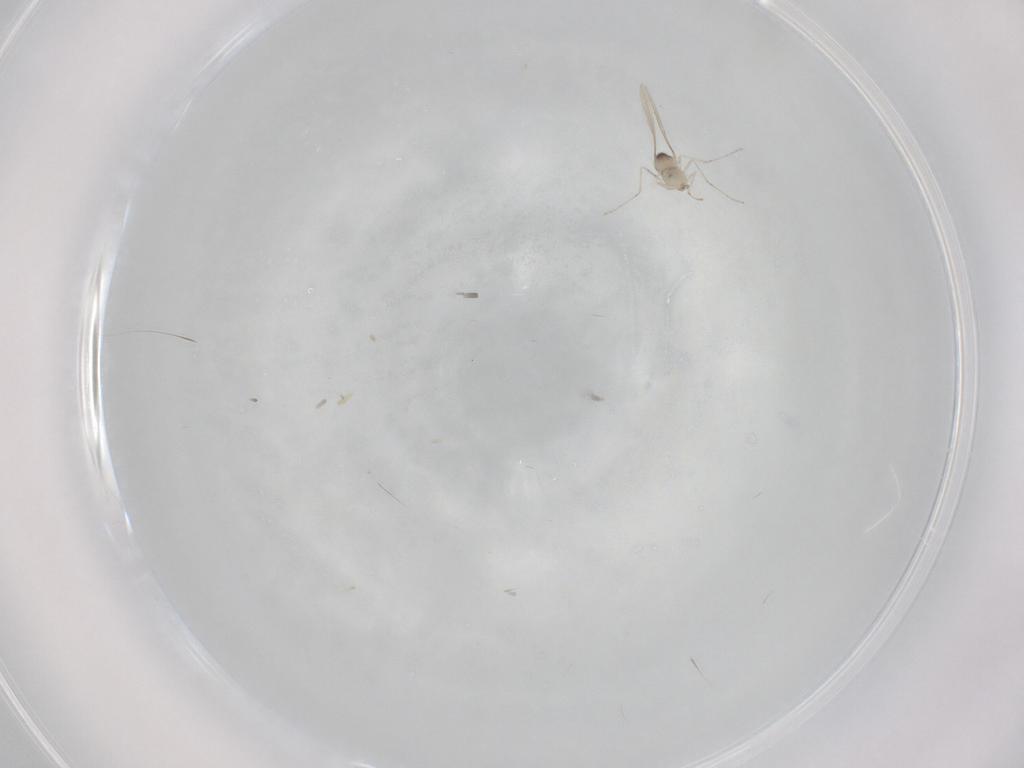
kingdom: Animalia
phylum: Arthropoda
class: Insecta
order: Diptera
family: Cecidomyiidae
